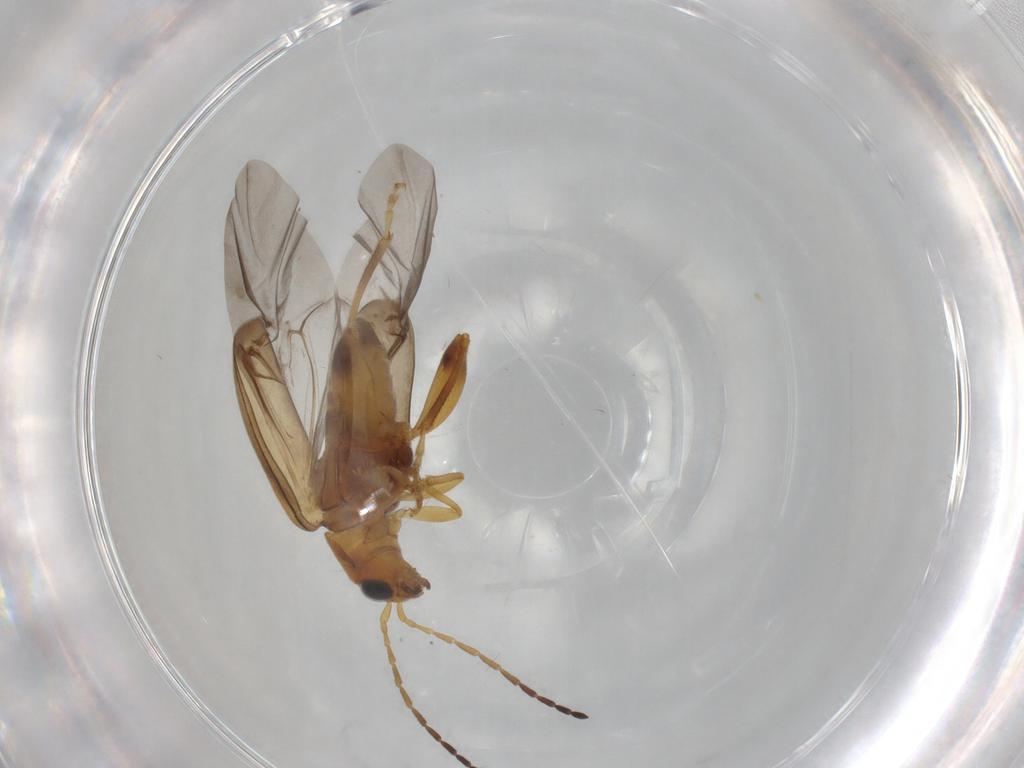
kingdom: Animalia
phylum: Arthropoda
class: Insecta
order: Coleoptera
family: Chrysomelidae
